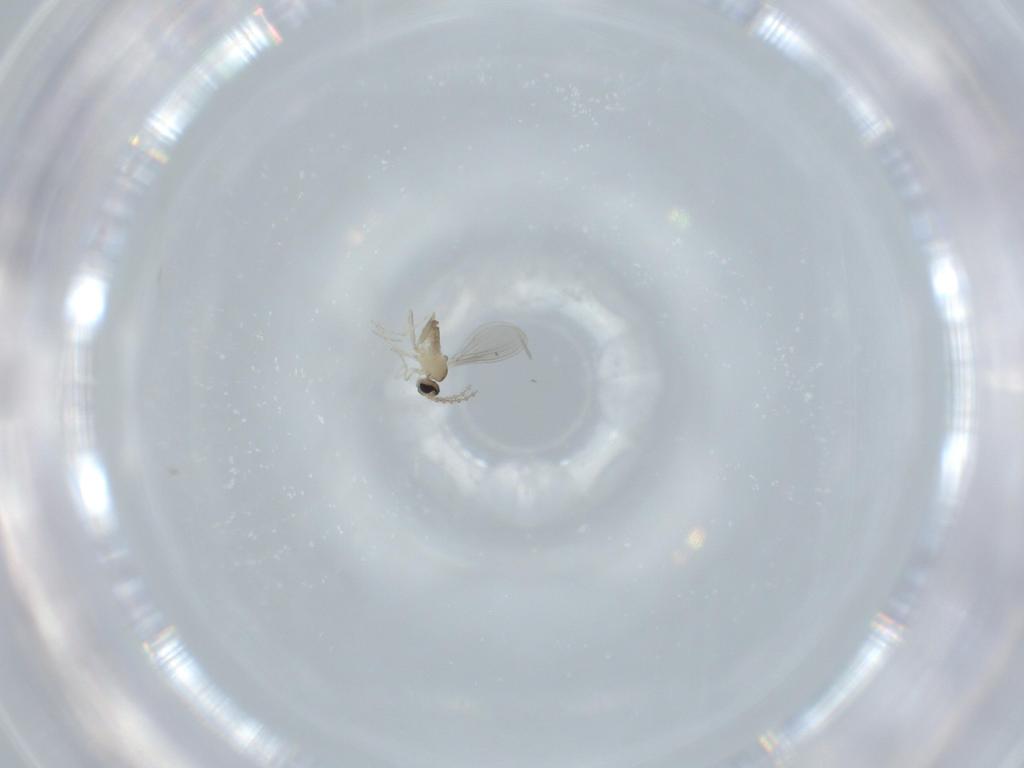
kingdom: Animalia
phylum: Arthropoda
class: Insecta
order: Diptera
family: Cecidomyiidae
